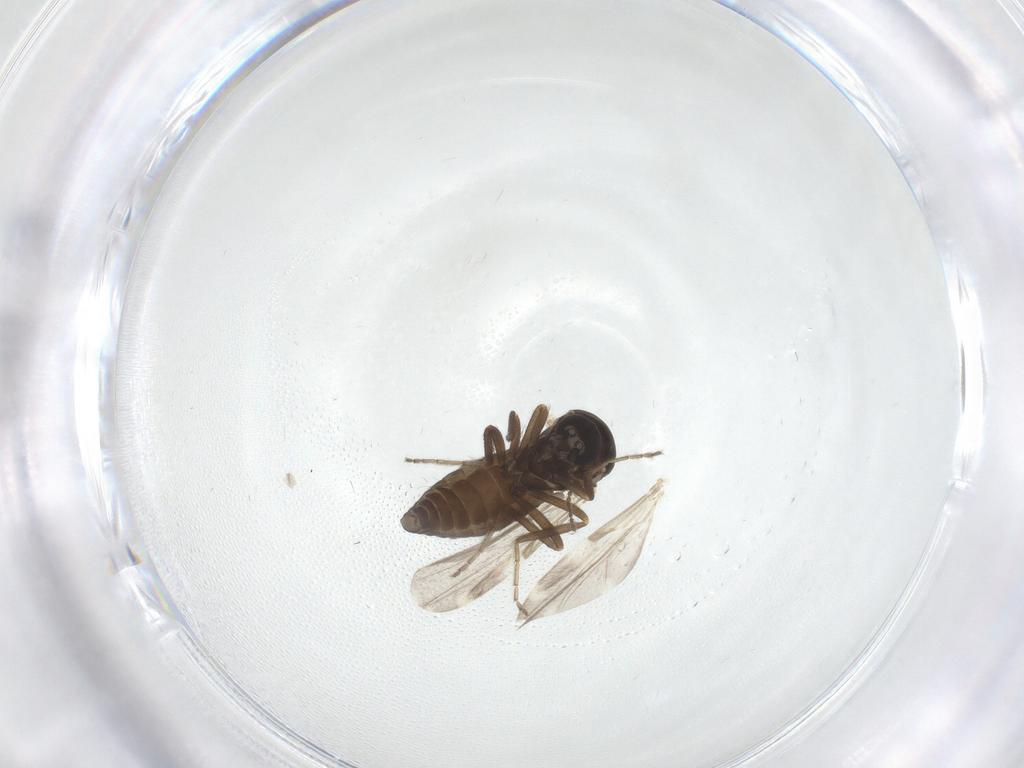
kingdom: Animalia
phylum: Arthropoda
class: Insecta
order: Diptera
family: Ceratopogonidae
